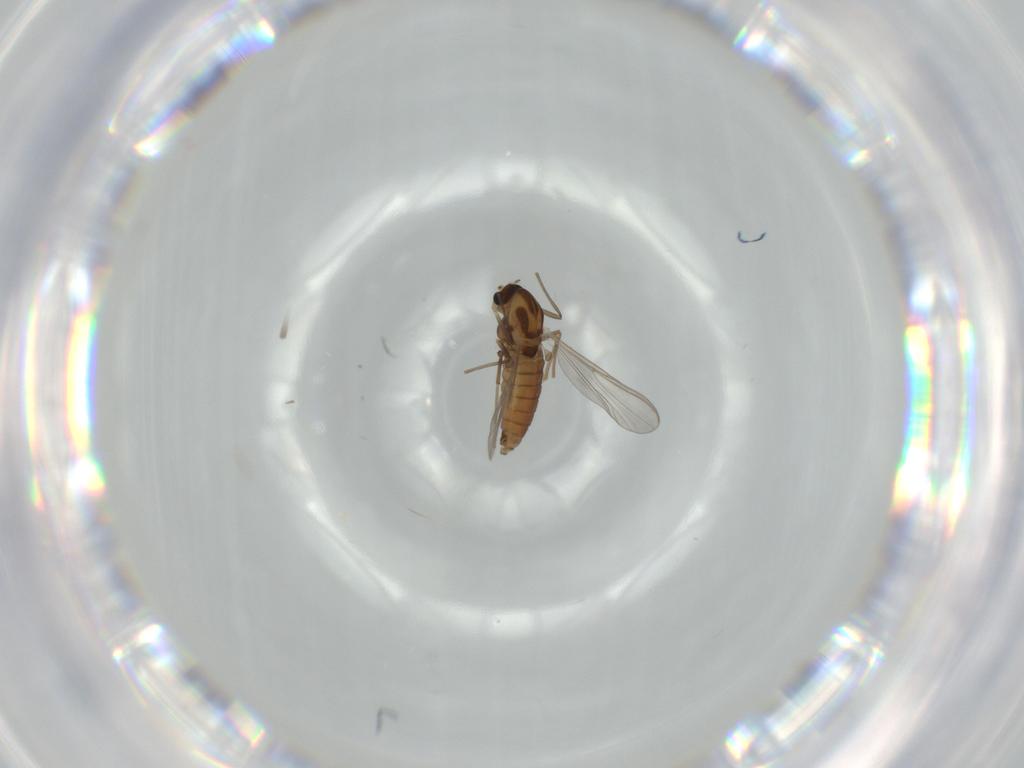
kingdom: Animalia
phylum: Arthropoda
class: Insecta
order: Diptera
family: Chironomidae
